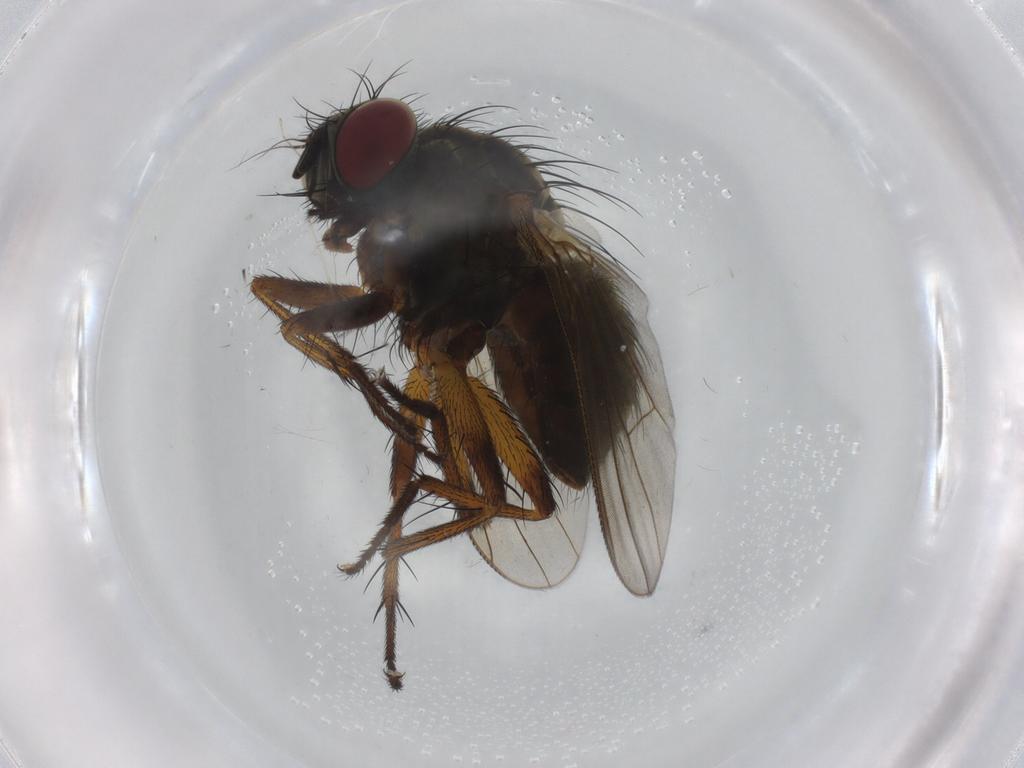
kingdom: Animalia
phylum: Arthropoda
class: Insecta
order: Diptera
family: Muscidae
